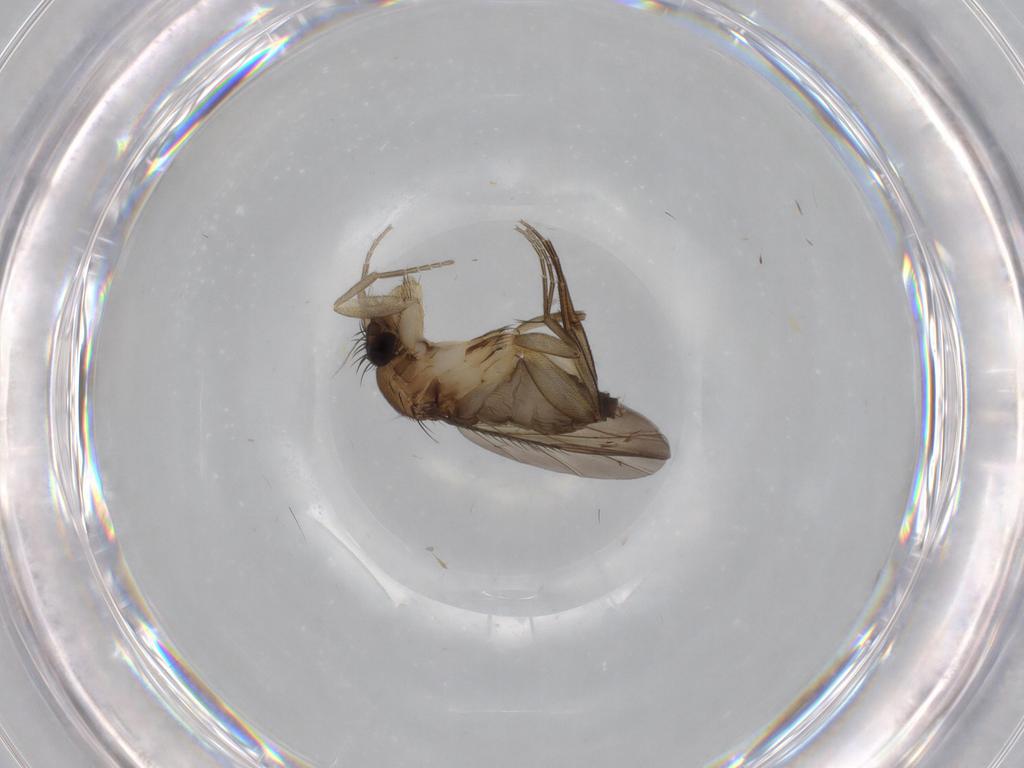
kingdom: Animalia
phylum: Arthropoda
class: Insecta
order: Diptera
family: Phoridae
